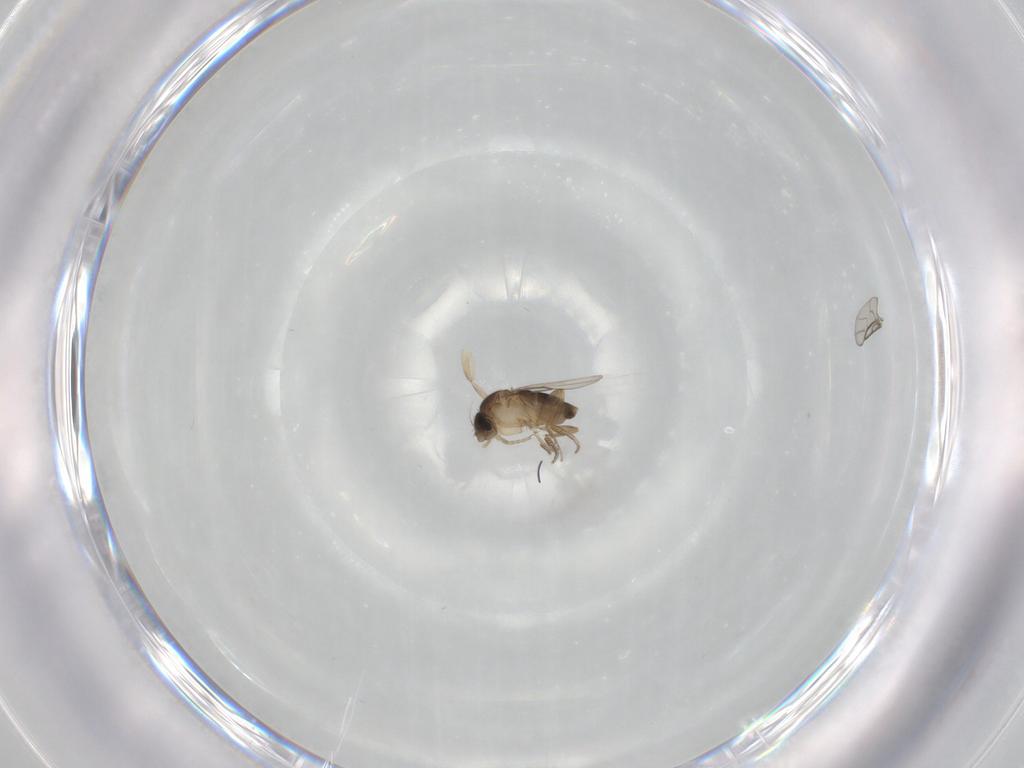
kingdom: Animalia
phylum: Arthropoda
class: Insecta
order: Diptera
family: Phoridae
